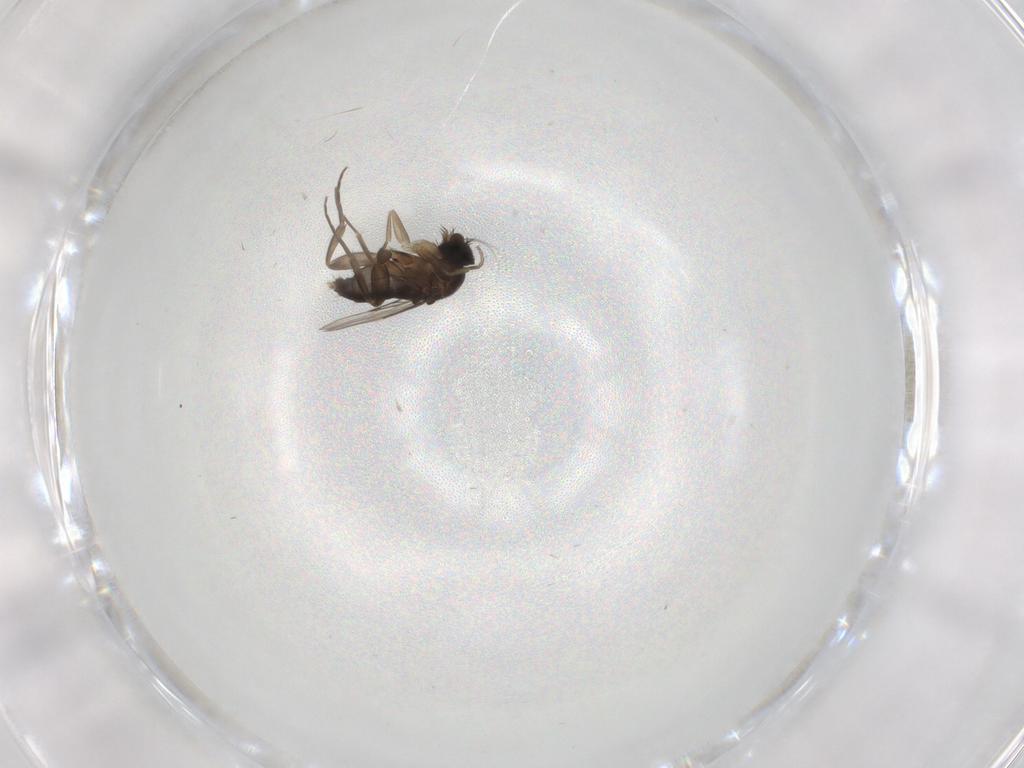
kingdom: Animalia
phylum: Arthropoda
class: Insecta
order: Diptera
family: Phoridae
